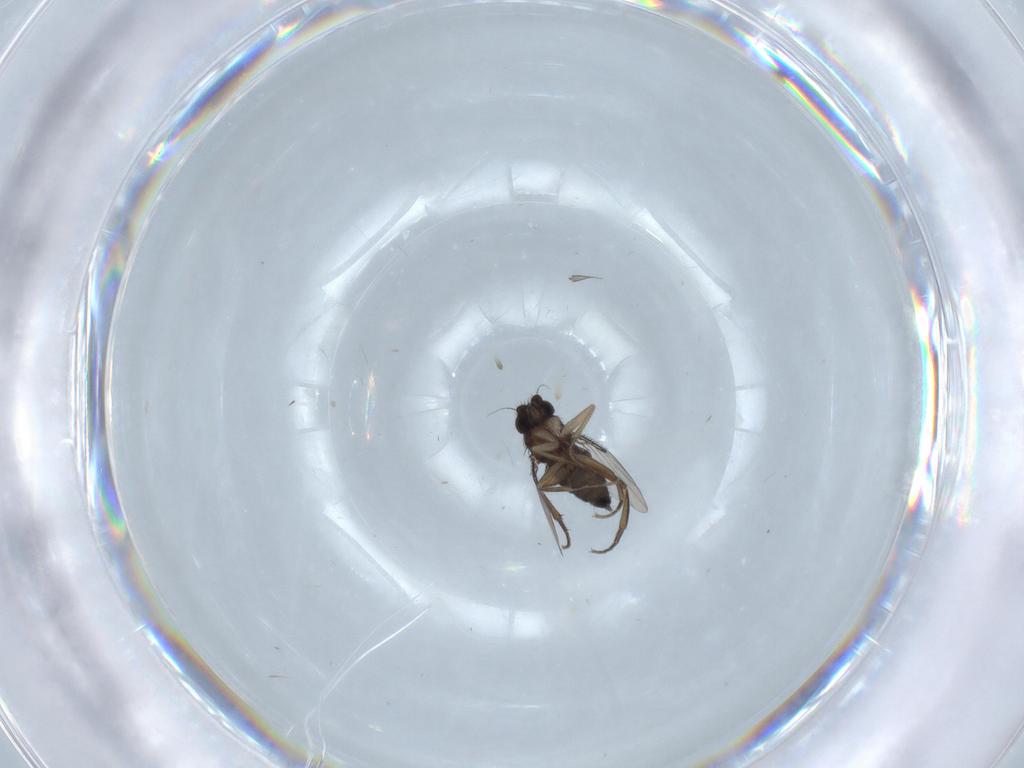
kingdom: Animalia
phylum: Arthropoda
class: Insecta
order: Diptera
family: Phoridae
